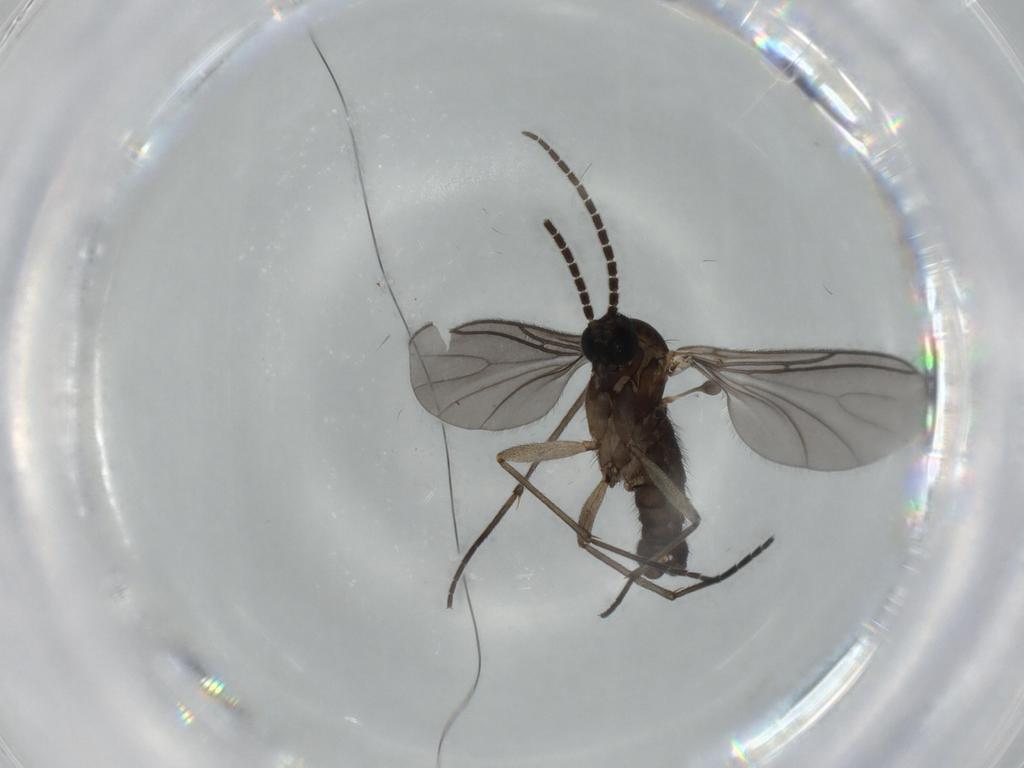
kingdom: Animalia
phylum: Arthropoda
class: Insecta
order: Diptera
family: Sciaridae
